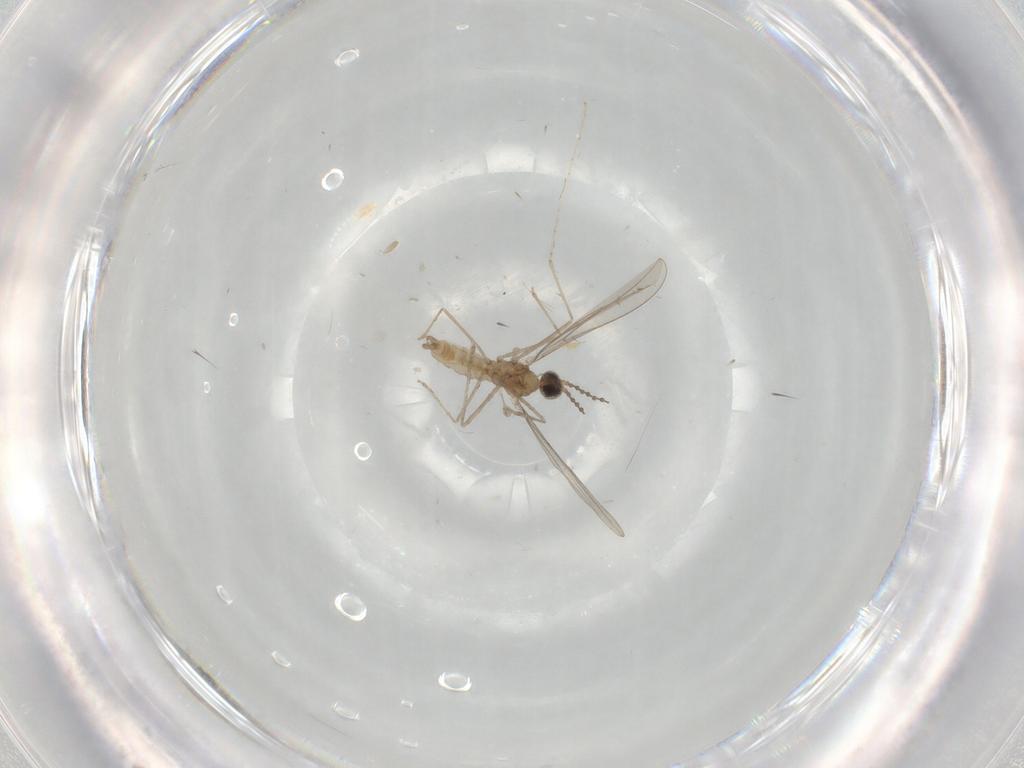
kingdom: Animalia
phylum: Arthropoda
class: Insecta
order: Diptera
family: Cecidomyiidae
